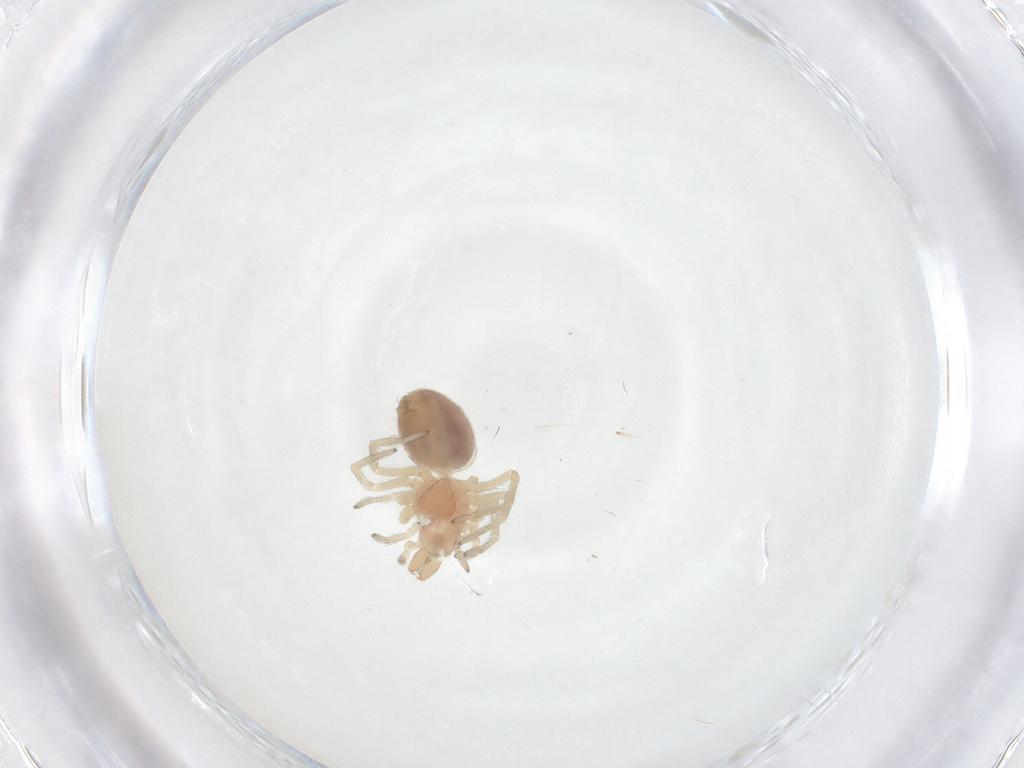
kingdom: Animalia
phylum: Arthropoda
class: Arachnida
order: Araneae
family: Dictynidae
